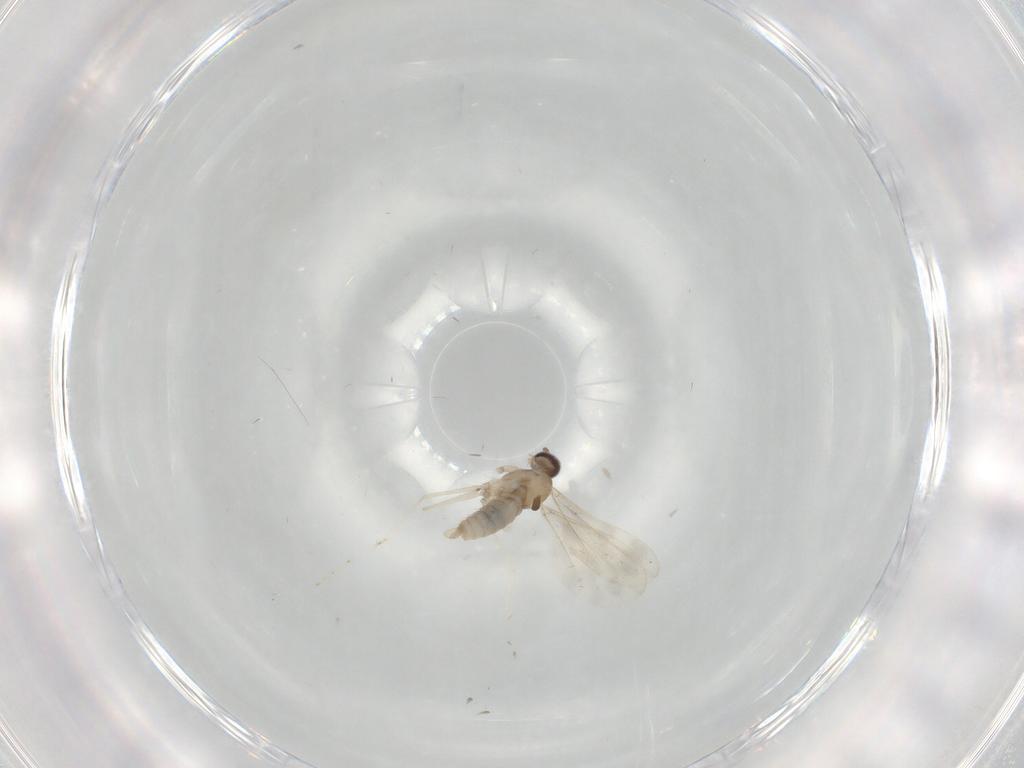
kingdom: Animalia
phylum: Arthropoda
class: Insecta
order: Diptera
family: Cecidomyiidae
